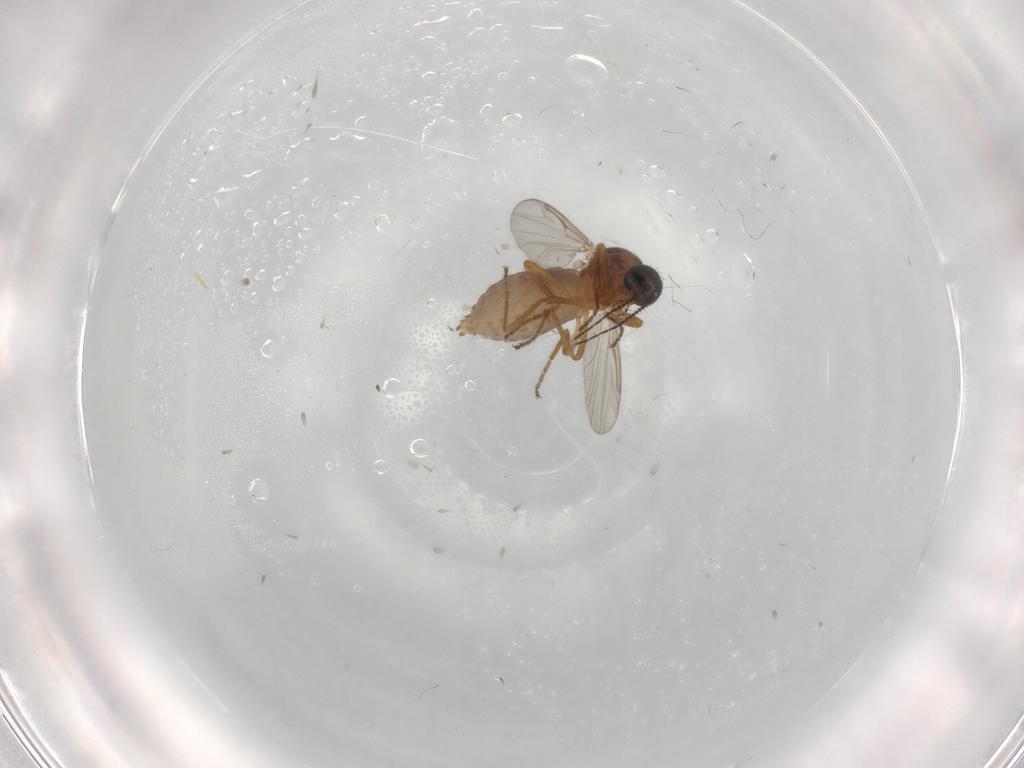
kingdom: Animalia
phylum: Arthropoda
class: Insecta
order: Diptera
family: Ceratopogonidae
